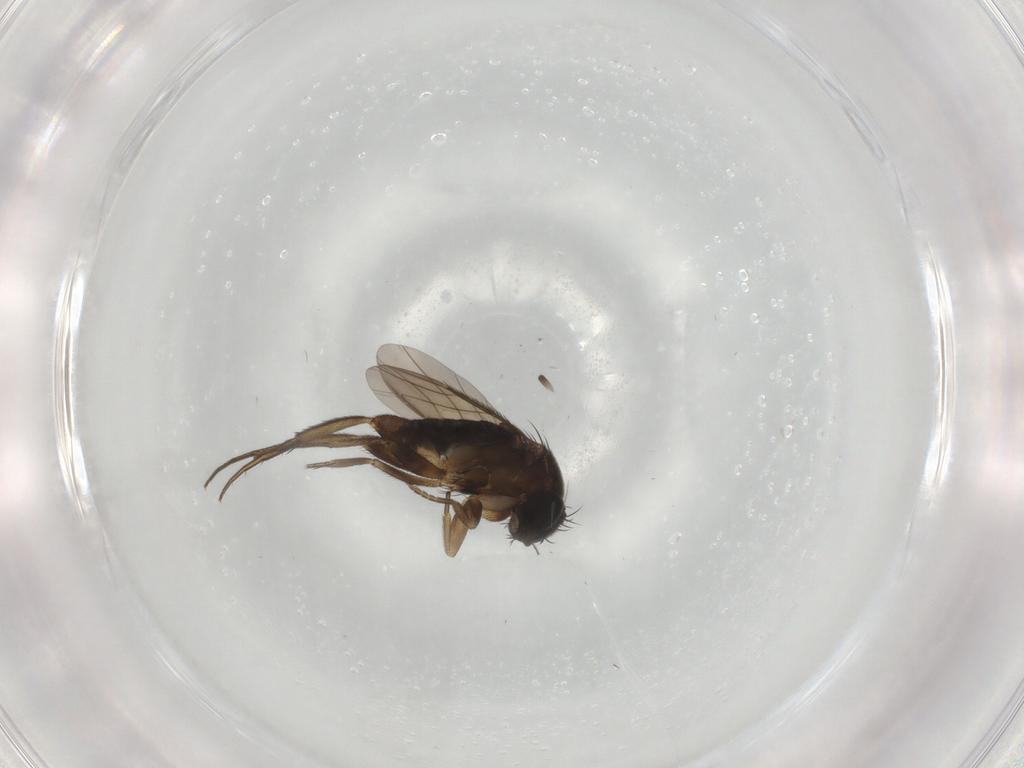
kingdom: Animalia
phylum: Arthropoda
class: Insecta
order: Diptera
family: Phoridae
